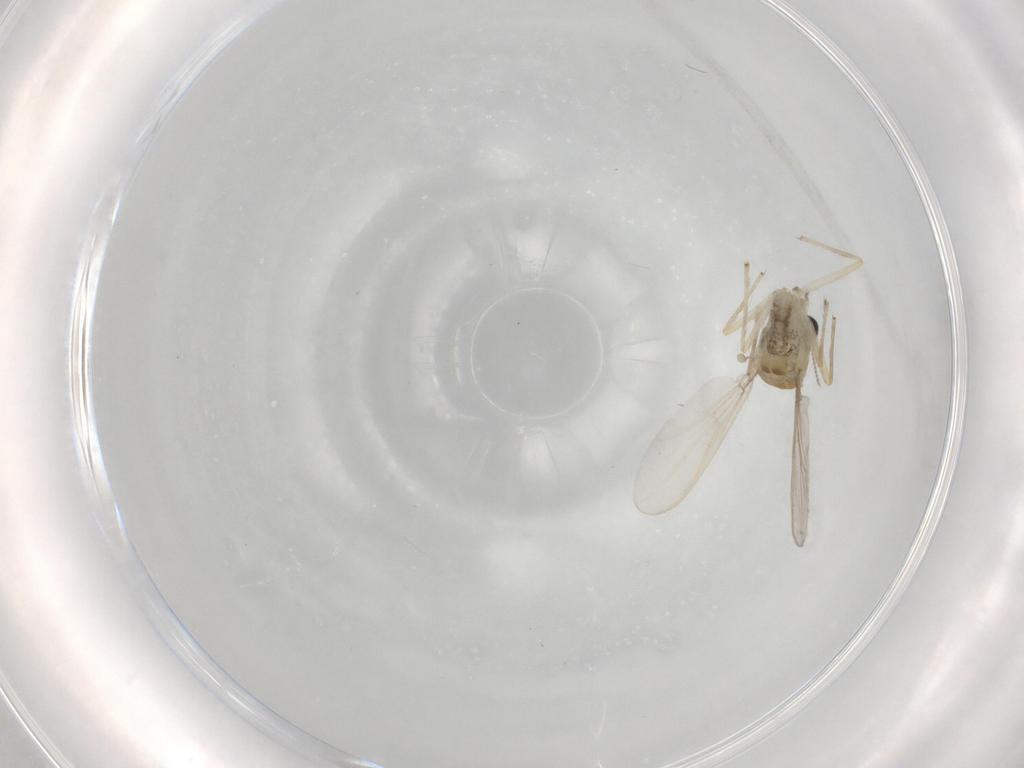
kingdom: Animalia
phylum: Arthropoda
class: Insecta
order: Diptera
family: Chironomidae
